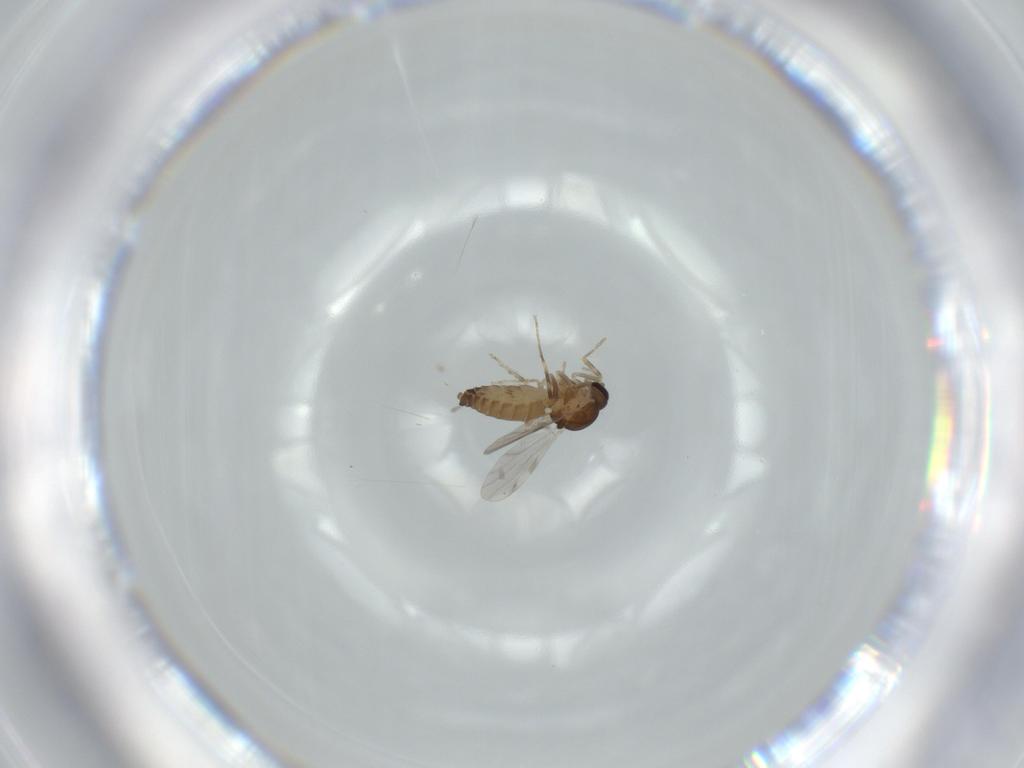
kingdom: Animalia
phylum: Arthropoda
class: Insecta
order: Diptera
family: Ceratopogonidae
